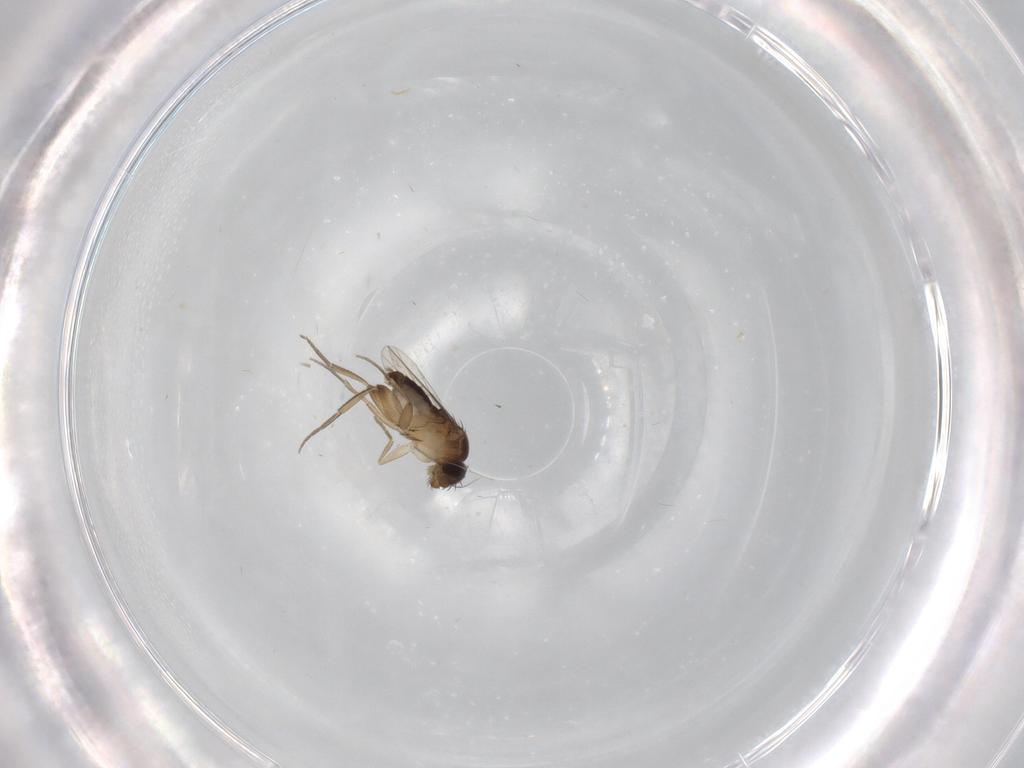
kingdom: Animalia
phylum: Arthropoda
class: Insecta
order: Diptera
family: Phoridae
